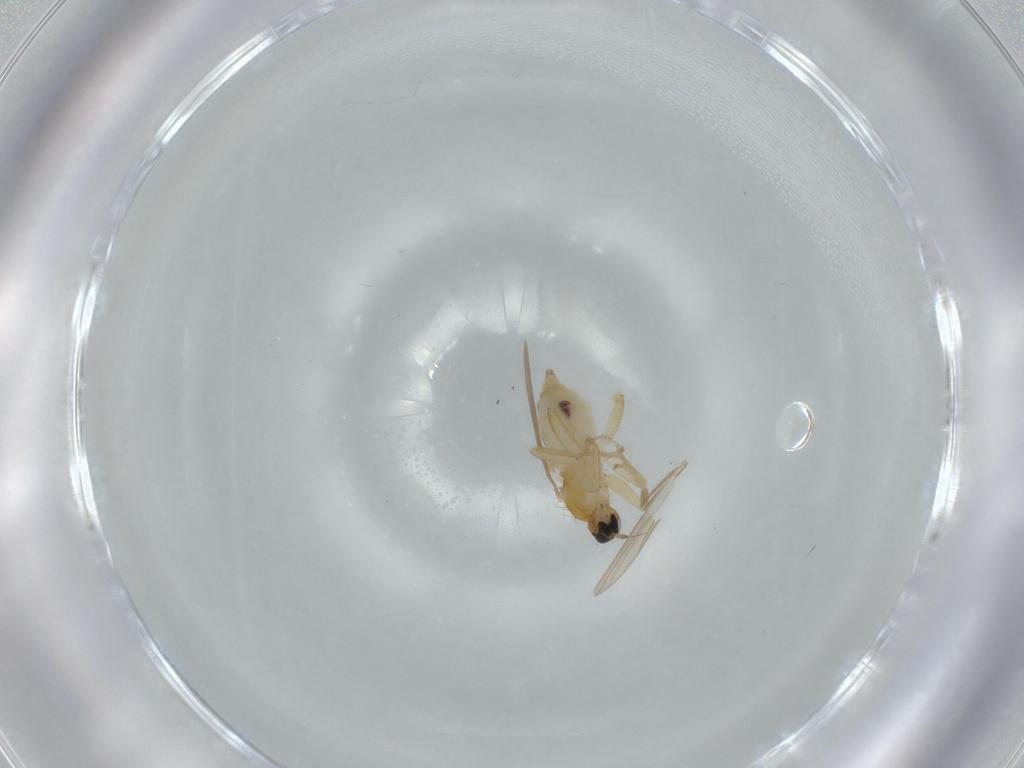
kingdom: Animalia
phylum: Arthropoda
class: Insecta
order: Diptera
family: Hybotidae
